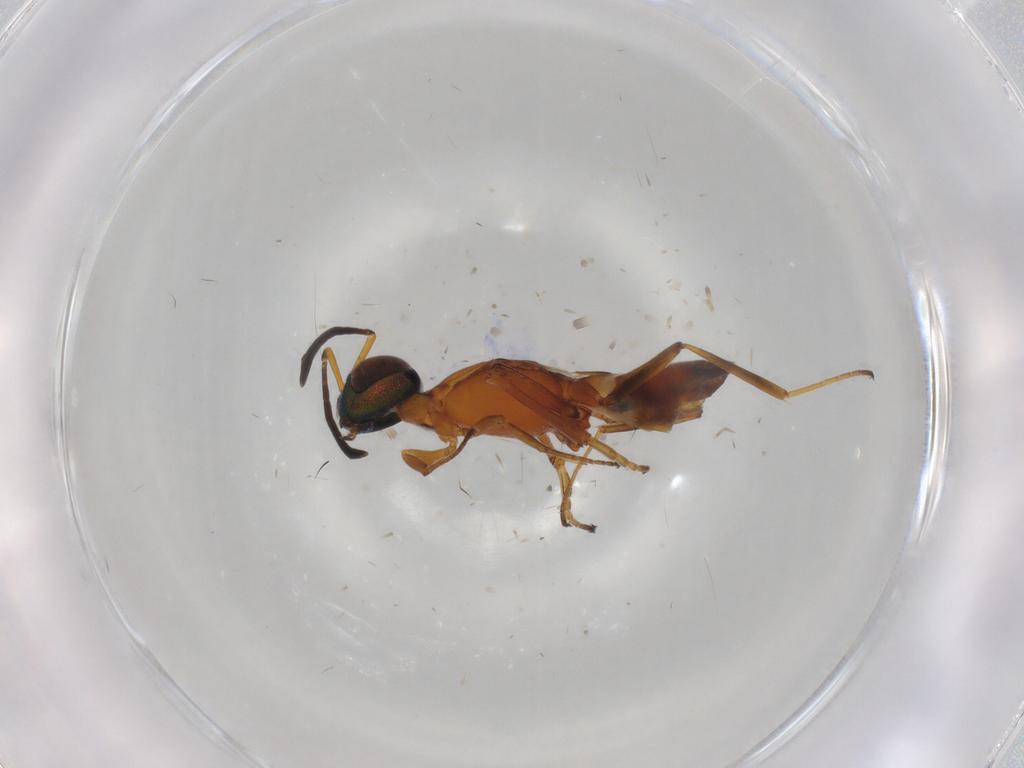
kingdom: Animalia
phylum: Arthropoda
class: Insecta
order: Hymenoptera
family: Eupelmidae
